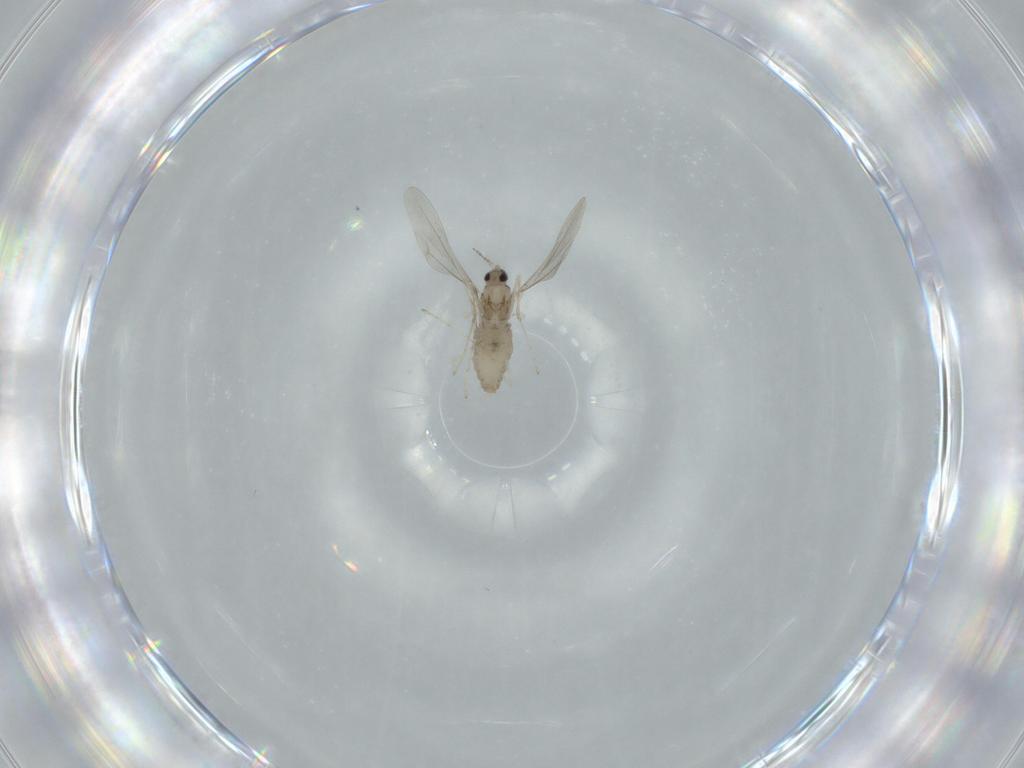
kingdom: Animalia
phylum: Arthropoda
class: Insecta
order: Diptera
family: Cecidomyiidae
